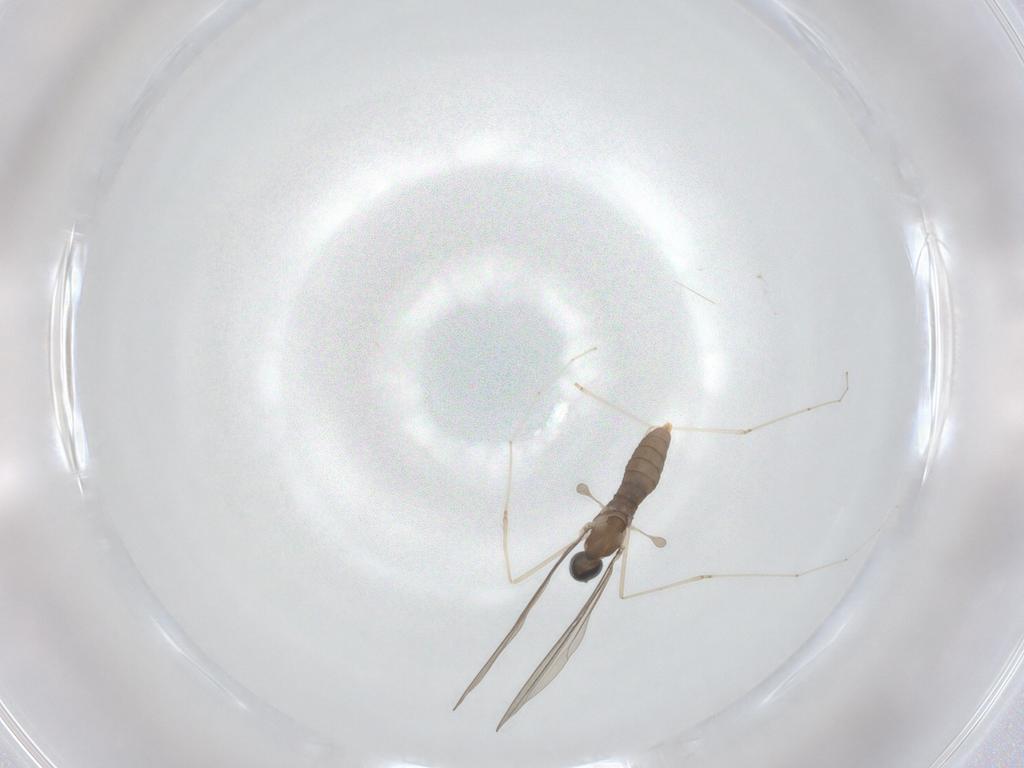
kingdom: Animalia
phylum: Arthropoda
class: Insecta
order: Diptera
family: Cecidomyiidae
